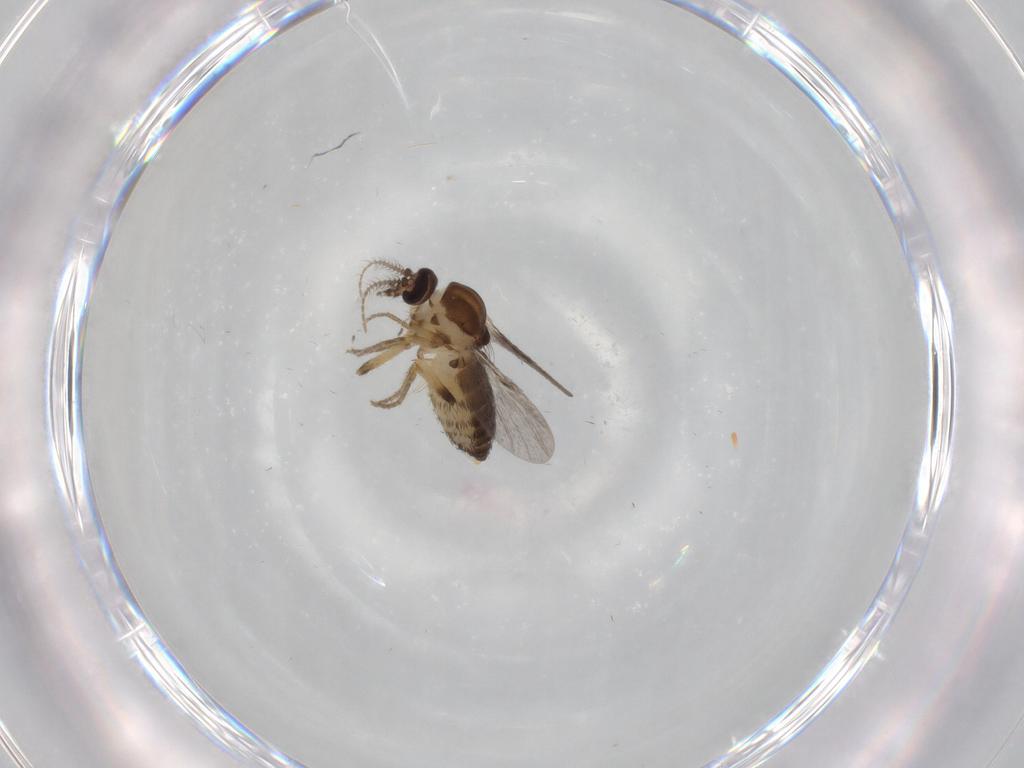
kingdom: Animalia
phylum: Arthropoda
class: Insecta
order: Diptera
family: Ceratopogonidae
